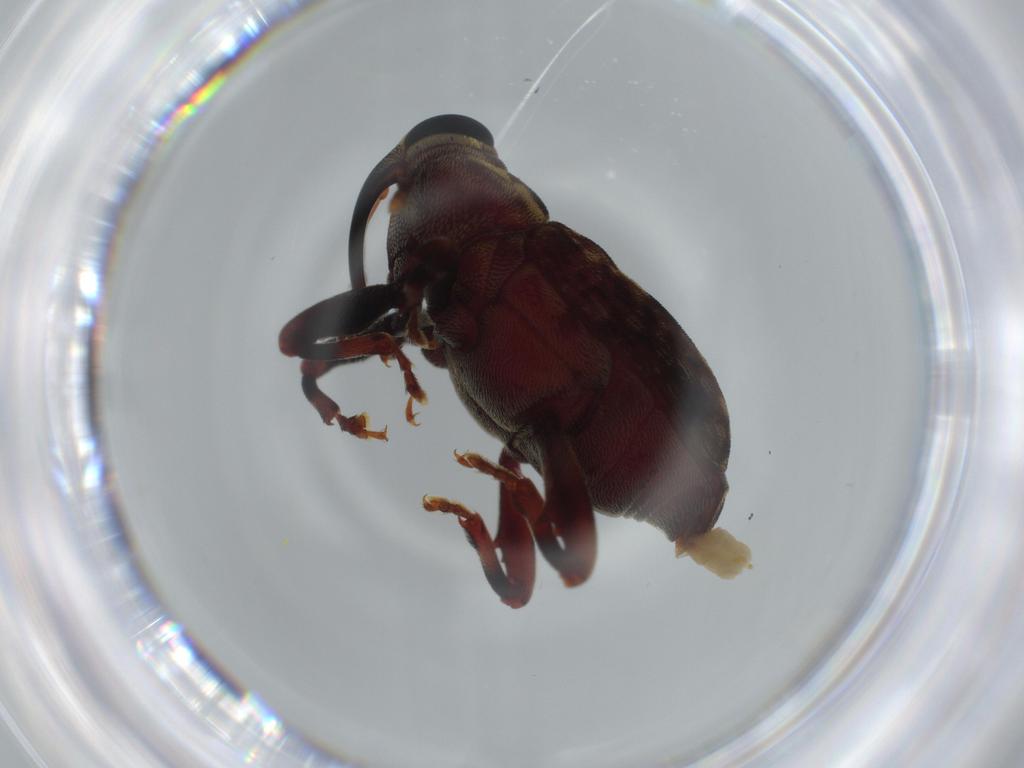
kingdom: Animalia
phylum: Arthropoda
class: Insecta
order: Coleoptera
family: Curculionidae
